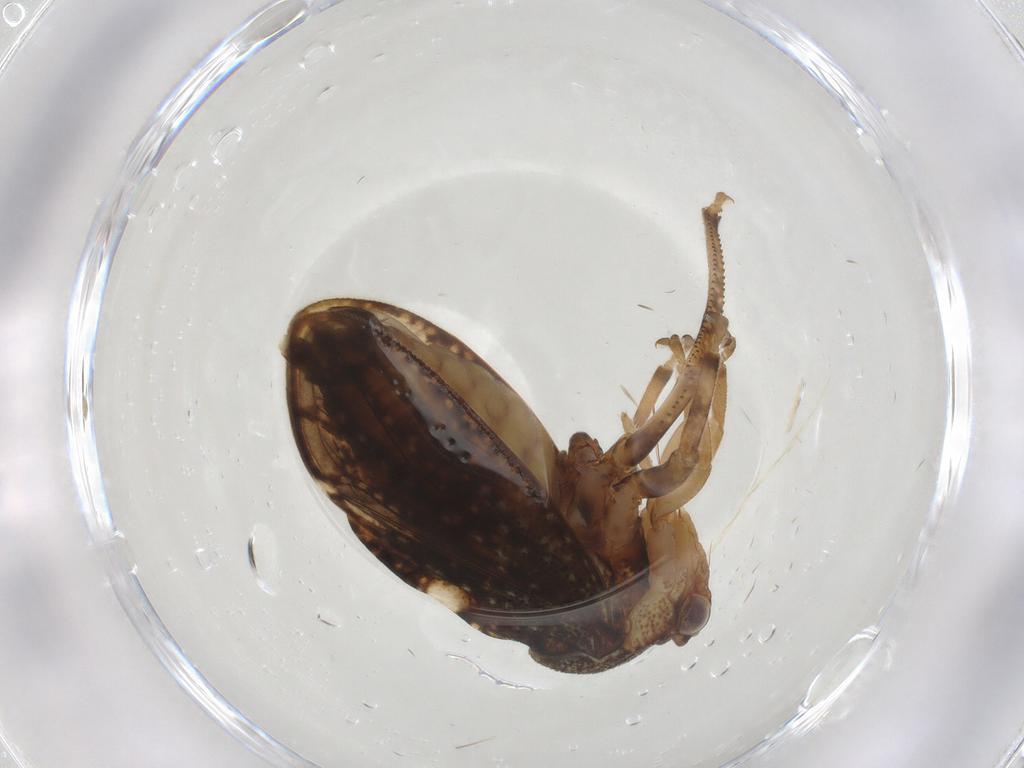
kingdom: Animalia
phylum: Arthropoda
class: Insecta
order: Hemiptera
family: Aetalionidae
